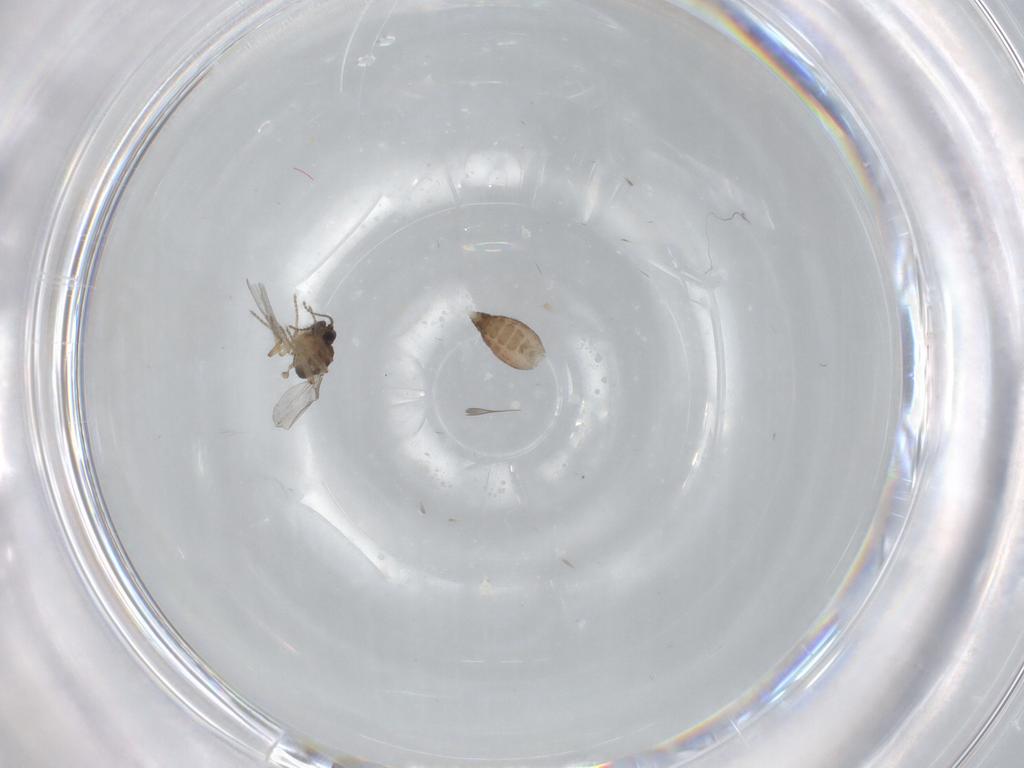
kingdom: Animalia
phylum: Arthropoda
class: Insecta
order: Diptera
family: Ceratopogonidae
